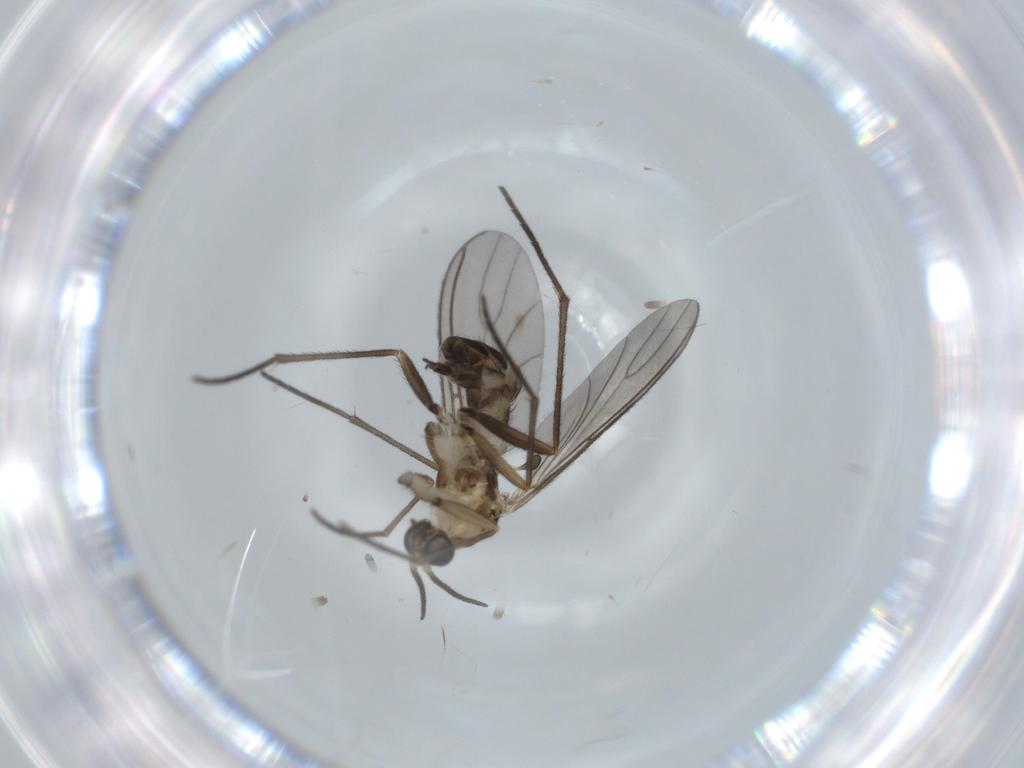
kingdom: Animalia
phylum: Arthropoda
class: Insecta
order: Diptera
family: Sciaridae
